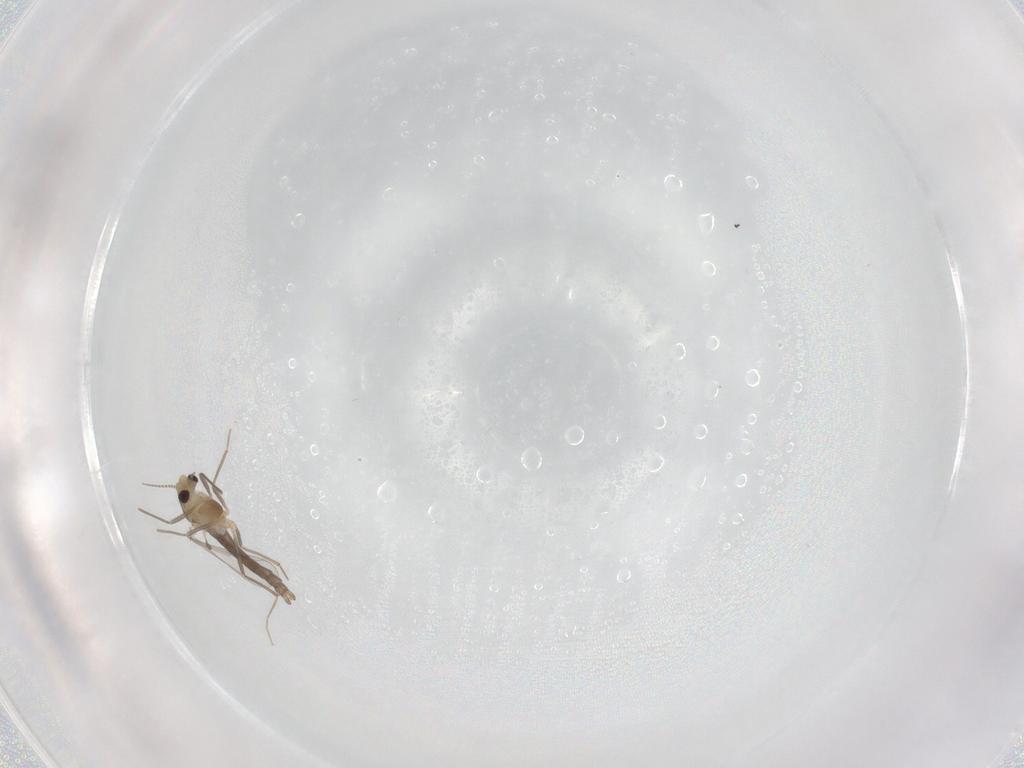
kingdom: Animalia
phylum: Arthropoda
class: Insecta
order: Diptera
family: Chironomidae
